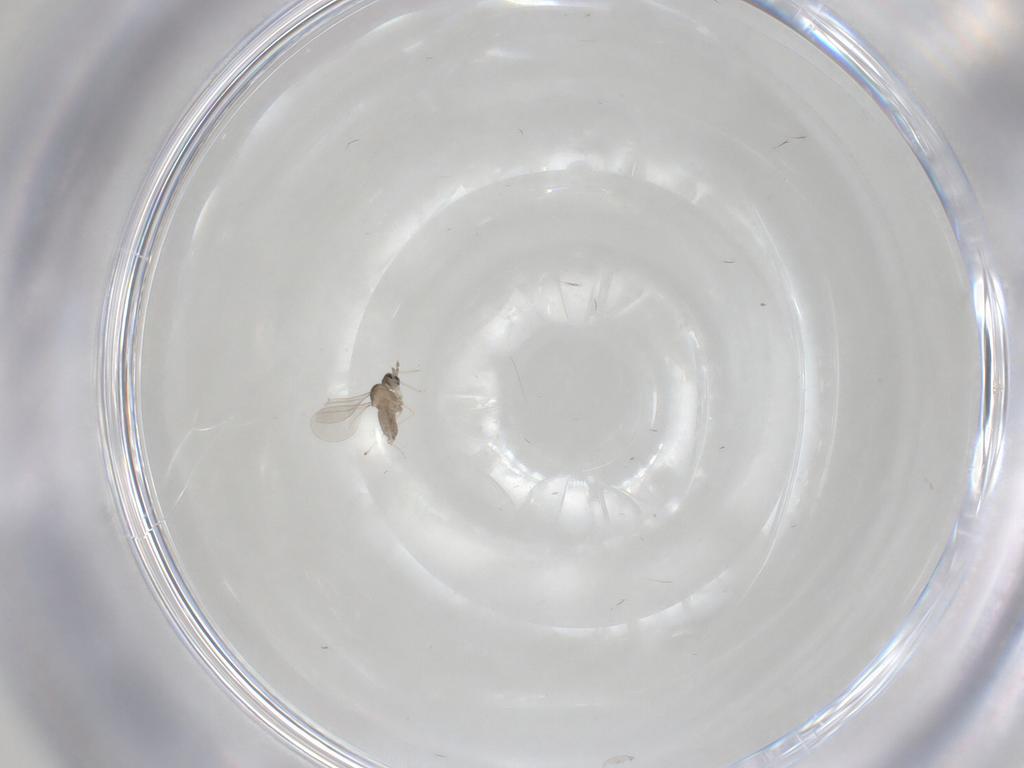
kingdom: Animalia
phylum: Arthropoda
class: Insecta
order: Diptera
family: Cecidomyiidae
